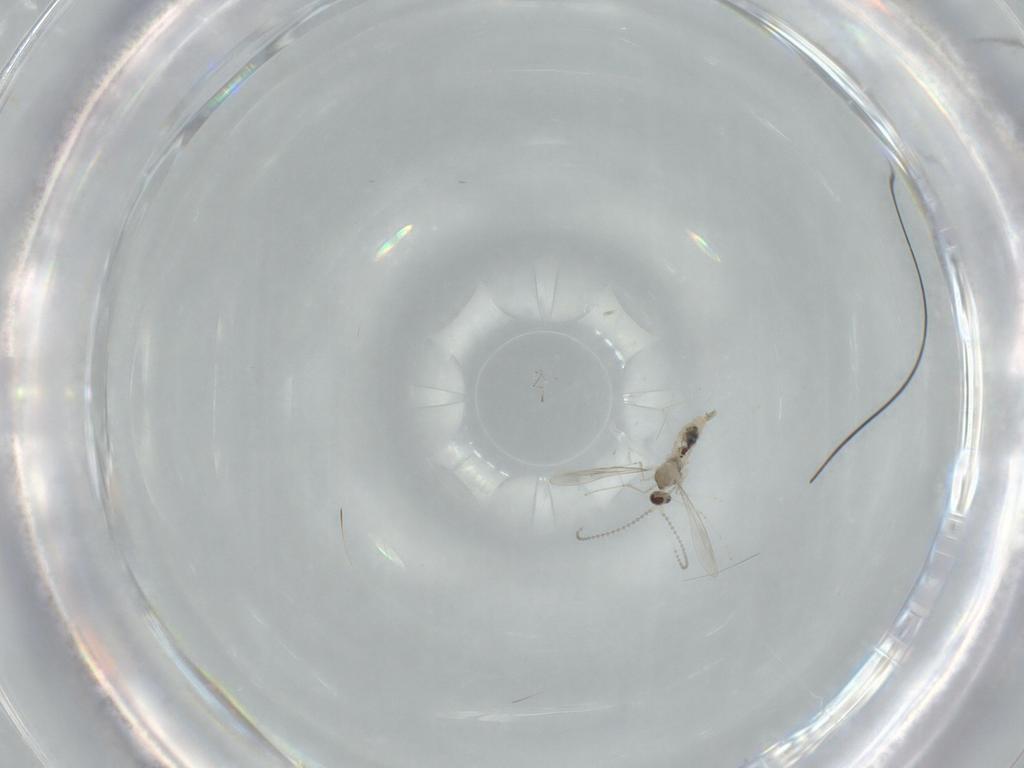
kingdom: Animalia
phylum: Arthropoda
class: Insecta
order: Diptera
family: Cecidomyiidae
